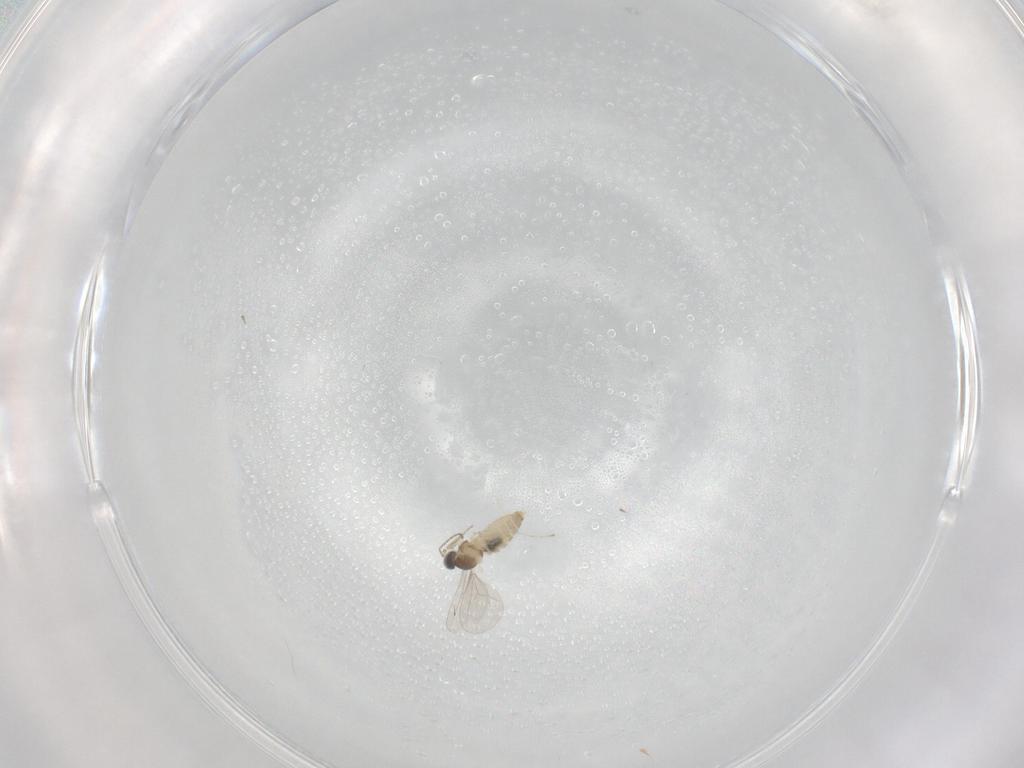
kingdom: Animalia
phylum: Arthropoda
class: Insecta
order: Diptera
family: Cecidomyiidae
